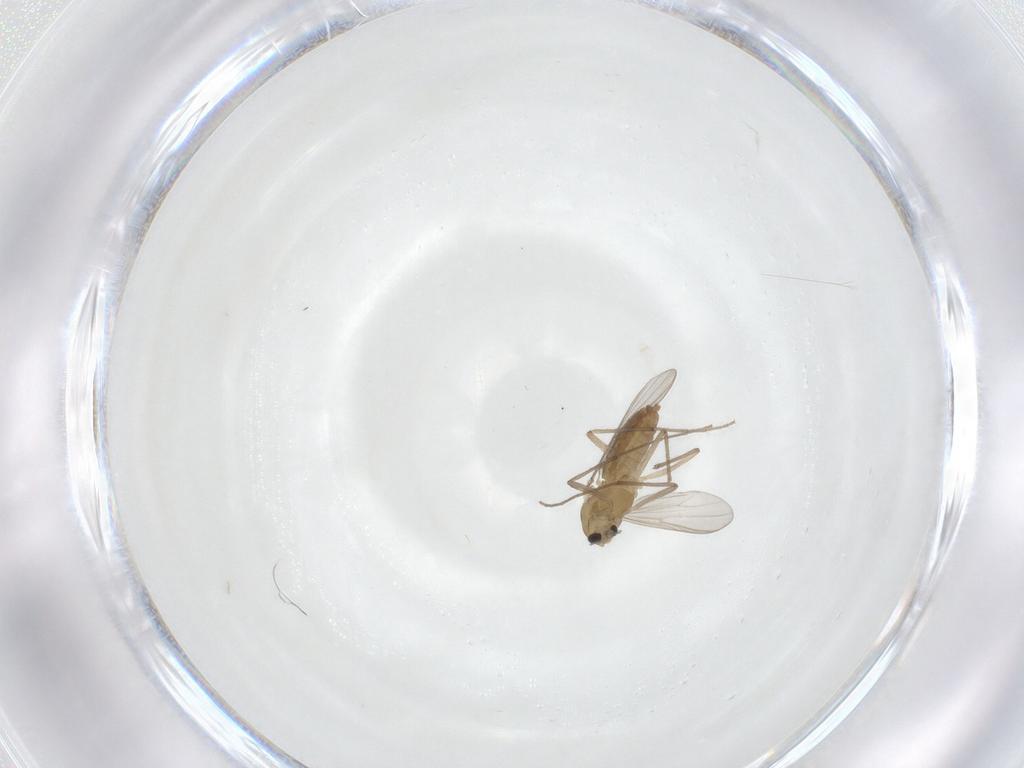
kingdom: Animalia
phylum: Arthropoda
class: Insecta
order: Diptera
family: Chironomidae
